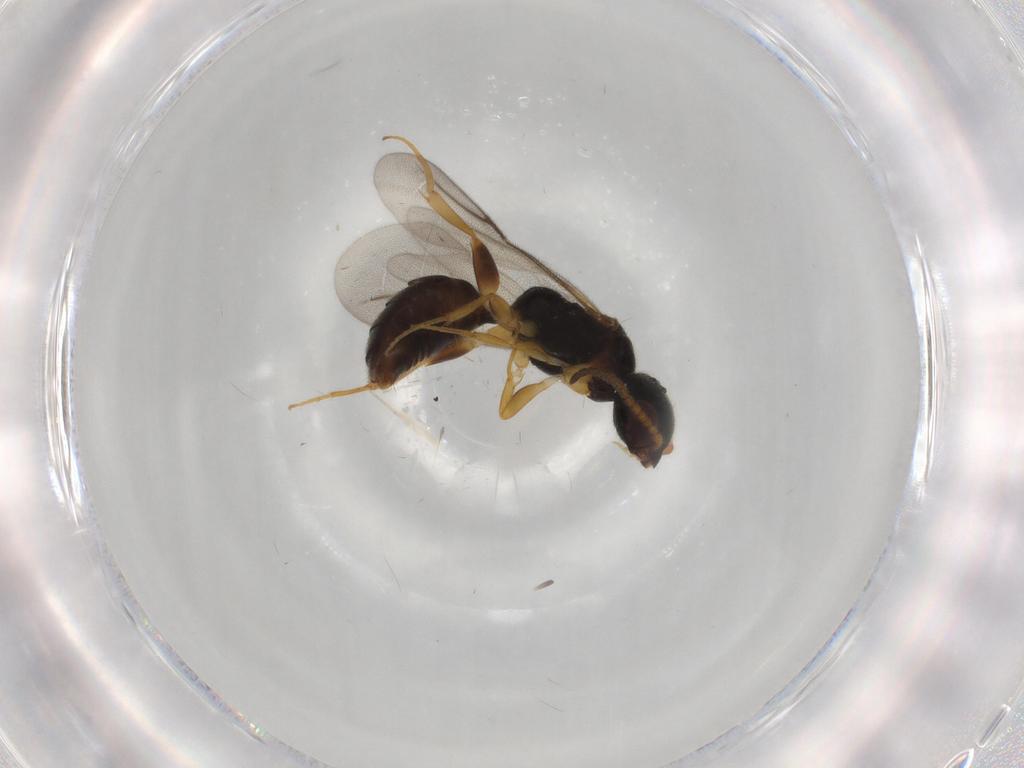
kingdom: Animalia
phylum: Arthropoda
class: Insecta
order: Hymenoptera
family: Bethylidae
